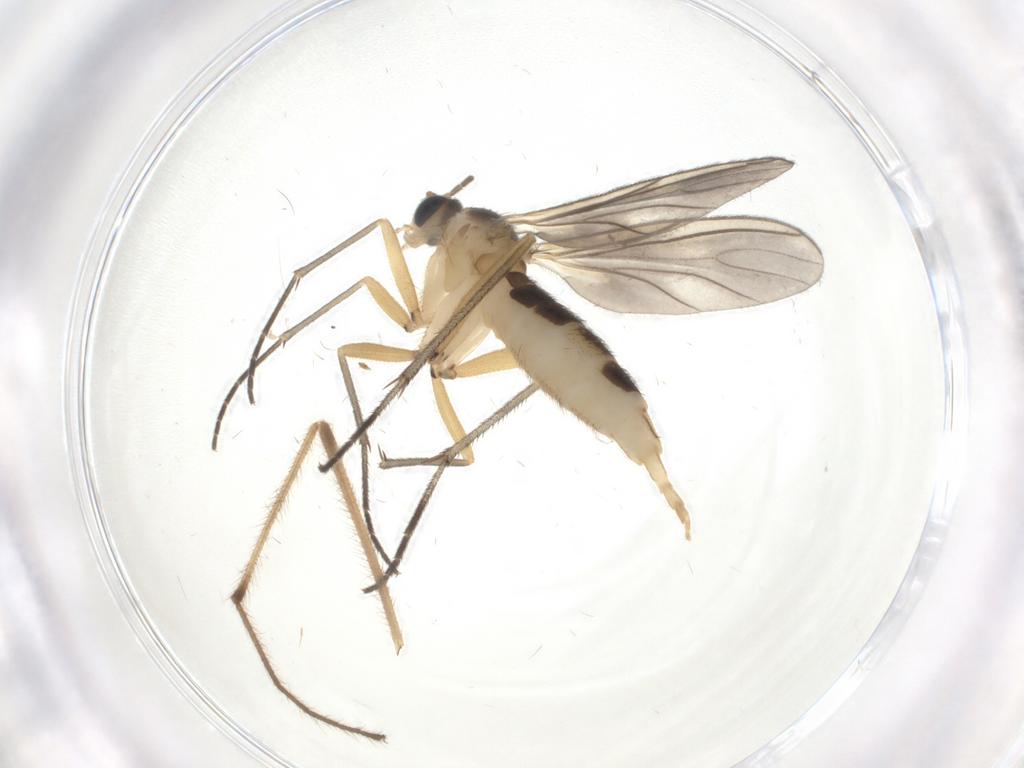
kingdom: Animalia
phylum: Arthropoda
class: Insecta
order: Diptera
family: Limoniidae
